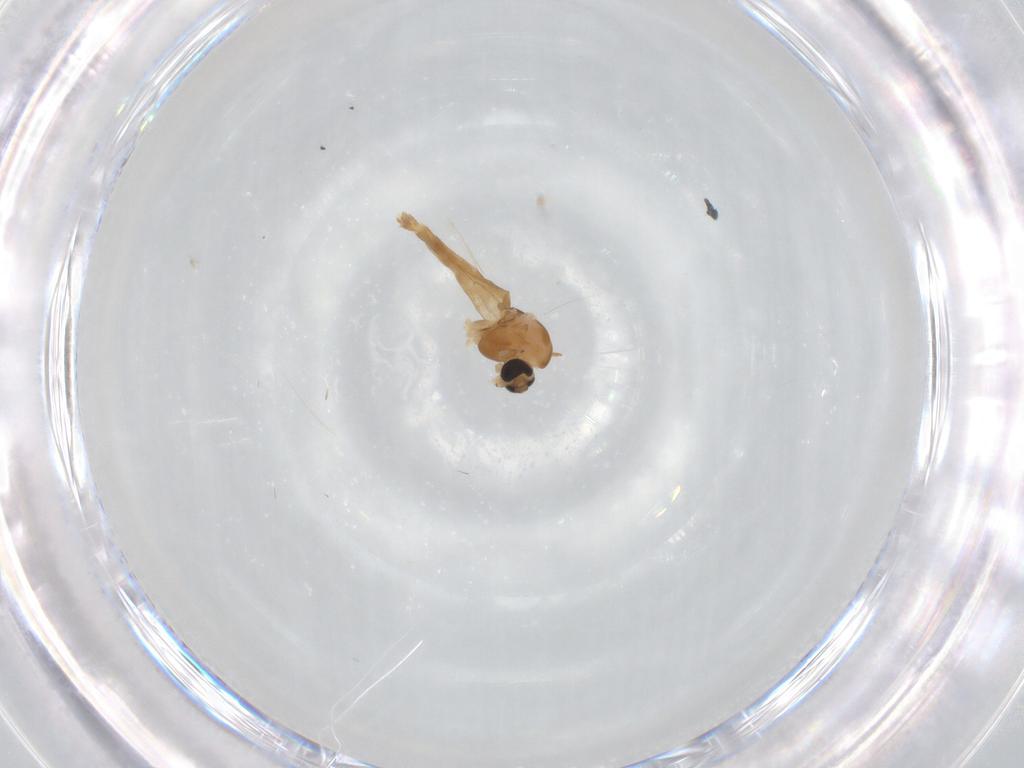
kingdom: Animalia
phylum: Arthropoda
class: Insecta
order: Diptera
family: Chironomidae
